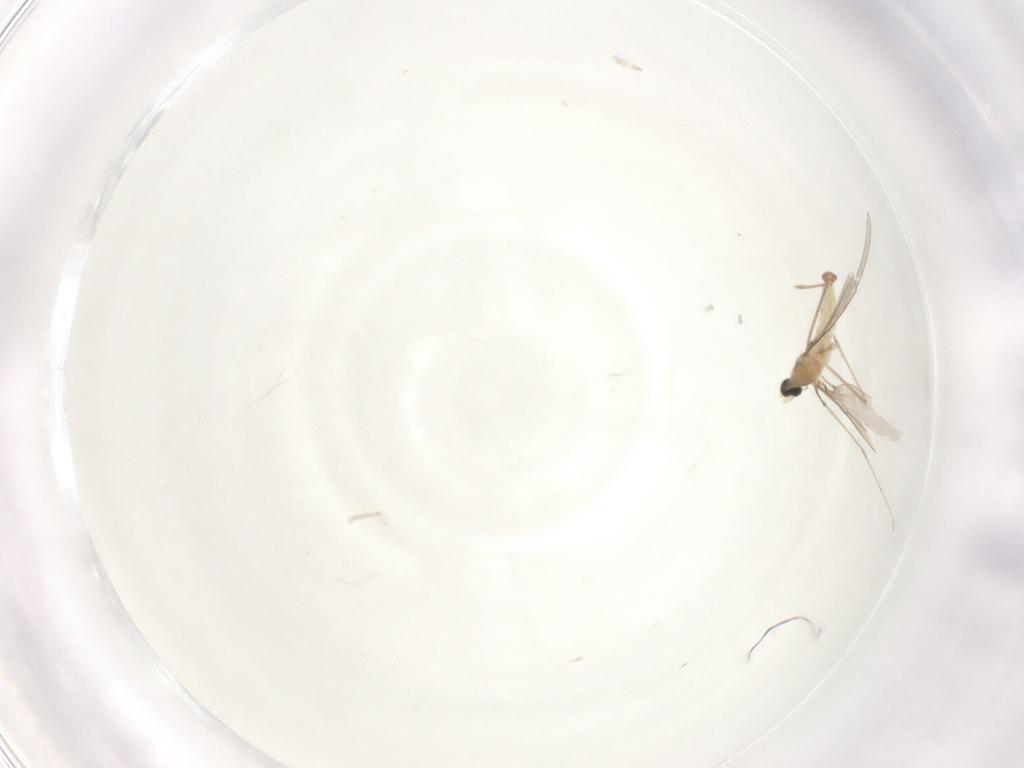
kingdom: Animalia
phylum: Arthropoda
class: Insecta
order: Diptera
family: Cecidomyiidae
